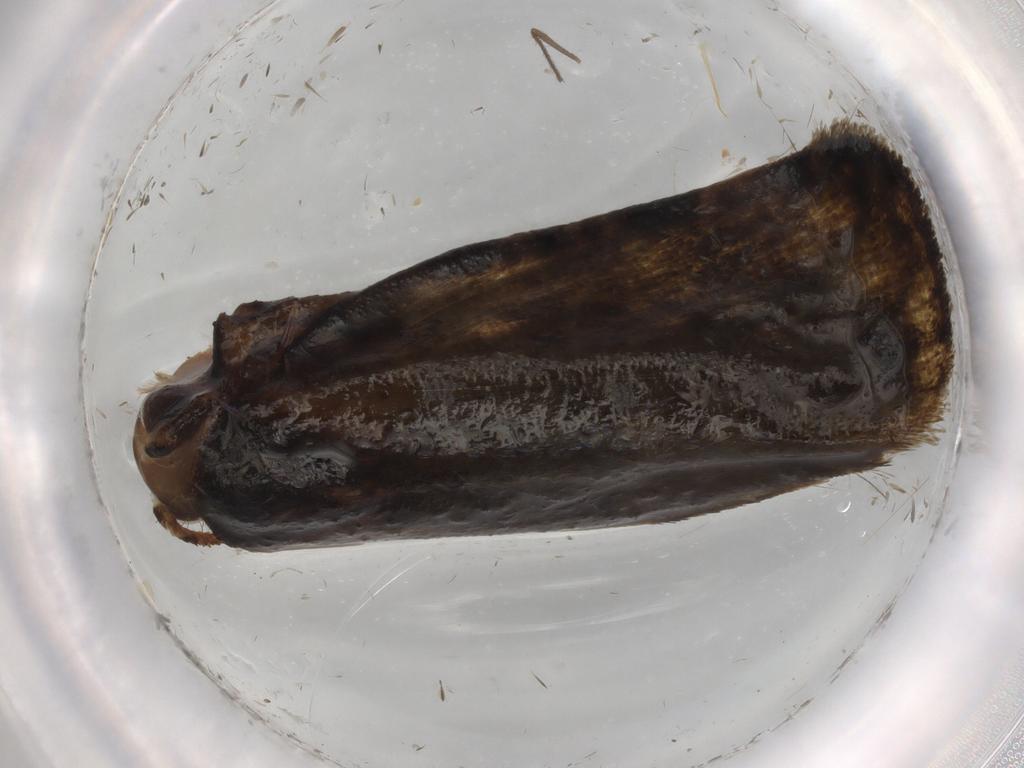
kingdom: Animalia
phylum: Arthropoda
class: Insecta
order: Lepidoptera
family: Geometridae
